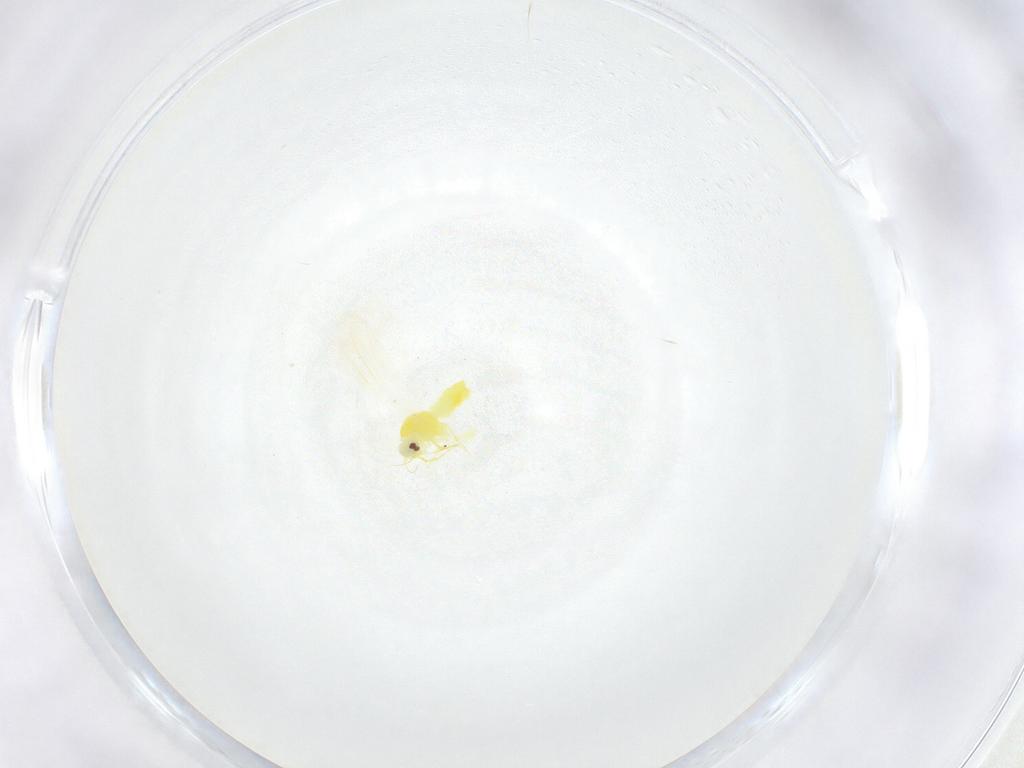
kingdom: Animalia
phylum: Arthropoda
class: Insecta
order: Hemiptera
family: Aleyrodidae
